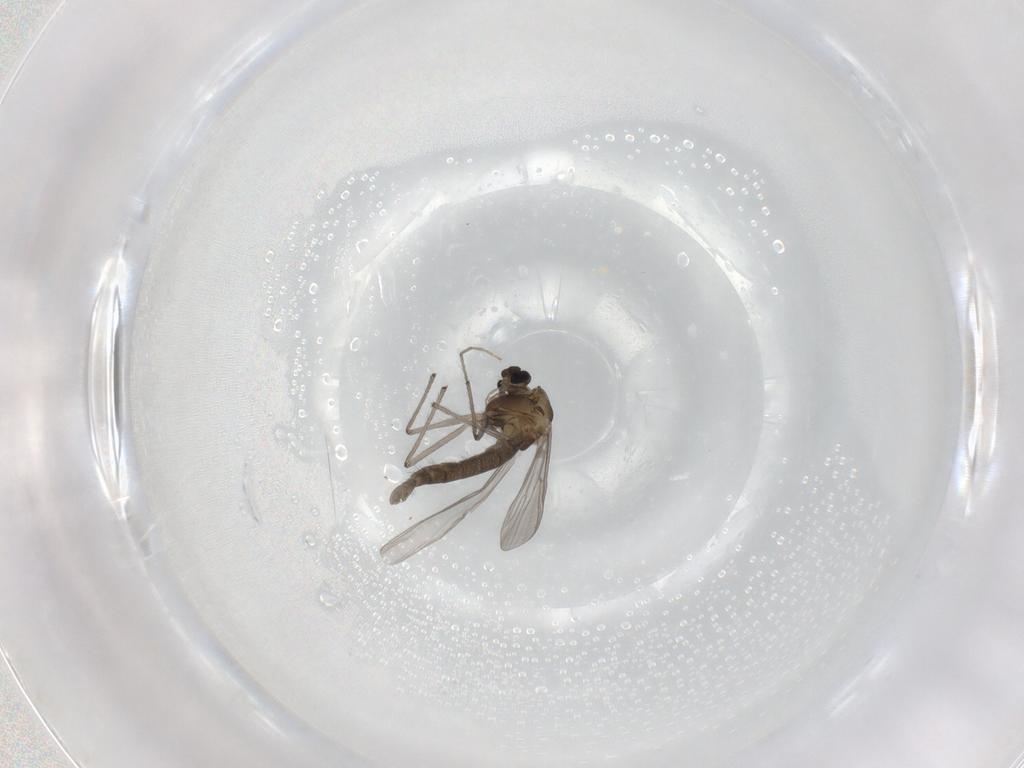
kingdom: Animalia
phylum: Arthropoda
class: Insecta
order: Diptera
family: Chironomidae
